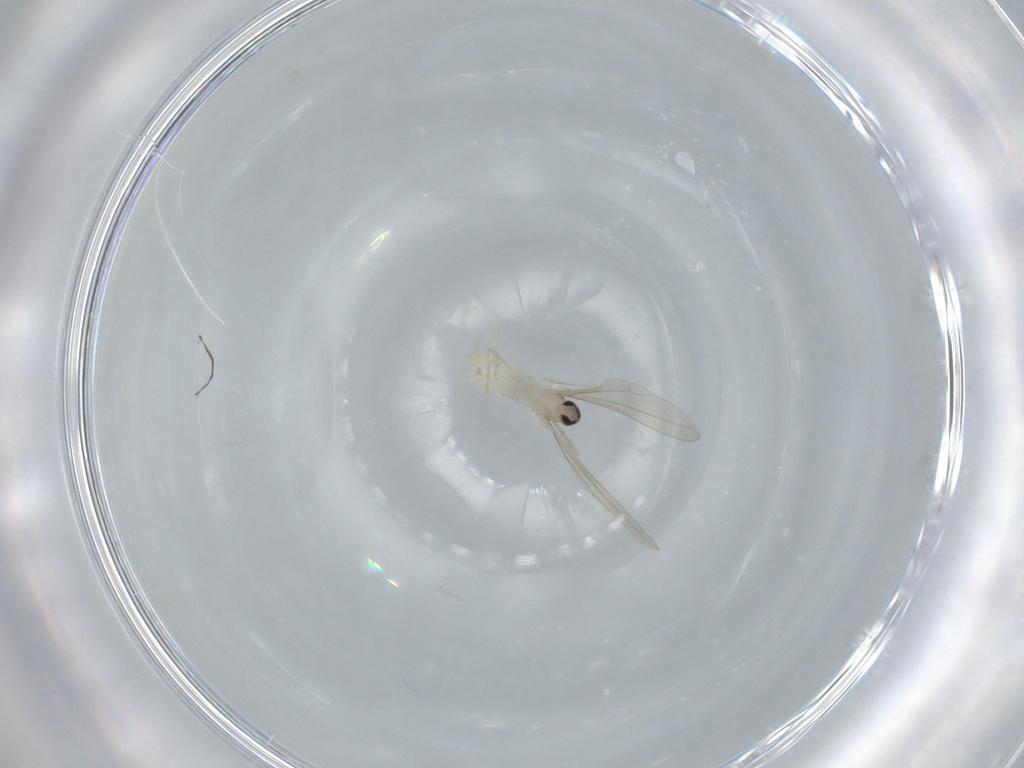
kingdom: Animalia
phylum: Arthropoda
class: Insecta
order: Diptera
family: Cecidomyiidae
